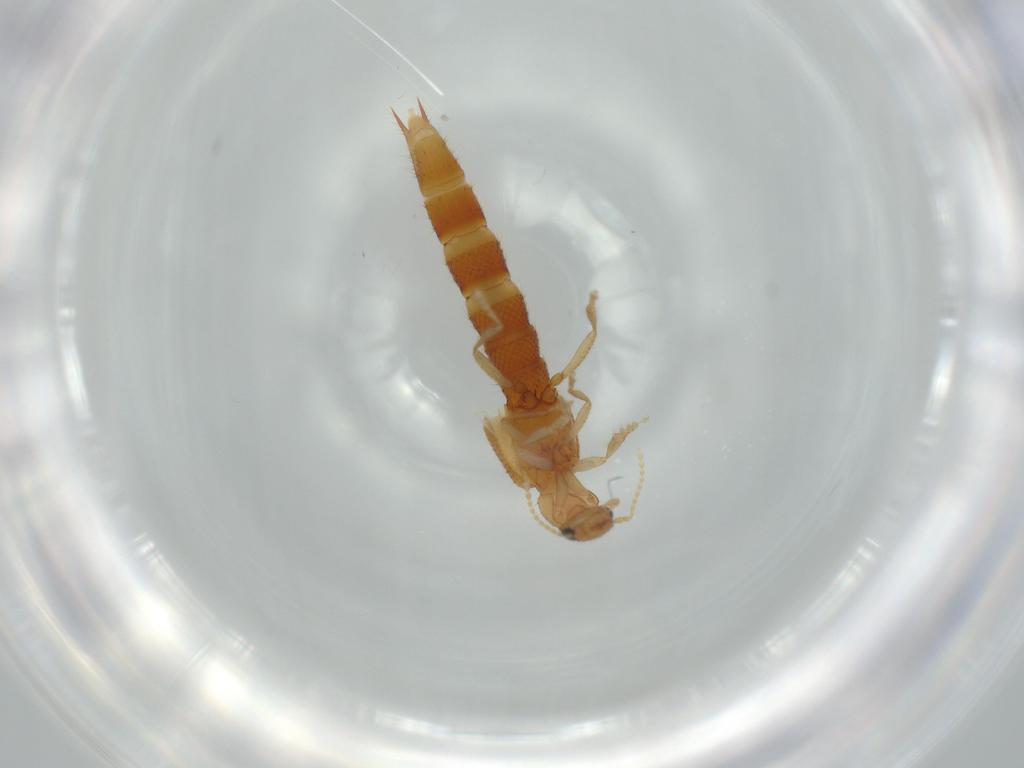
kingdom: Animalia
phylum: Arthropoda
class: Insecta
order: Coleoptera
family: Staphylinidae
